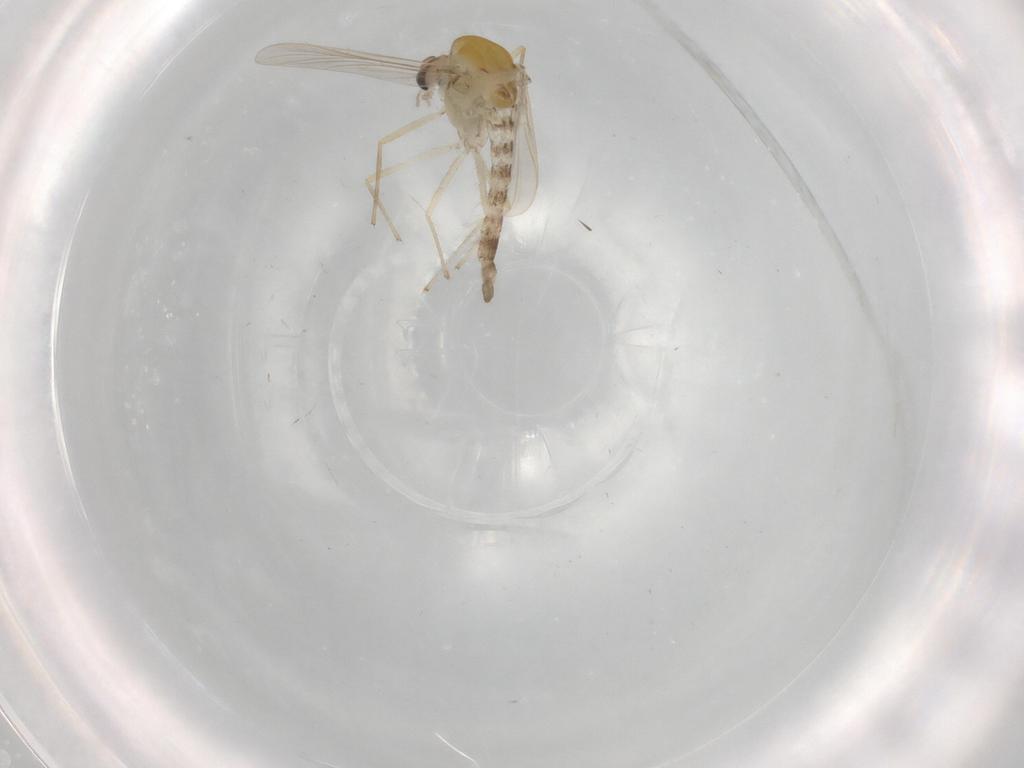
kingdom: Animalia
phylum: Arthropoda
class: Insecta
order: Diptera
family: Chironomidae
